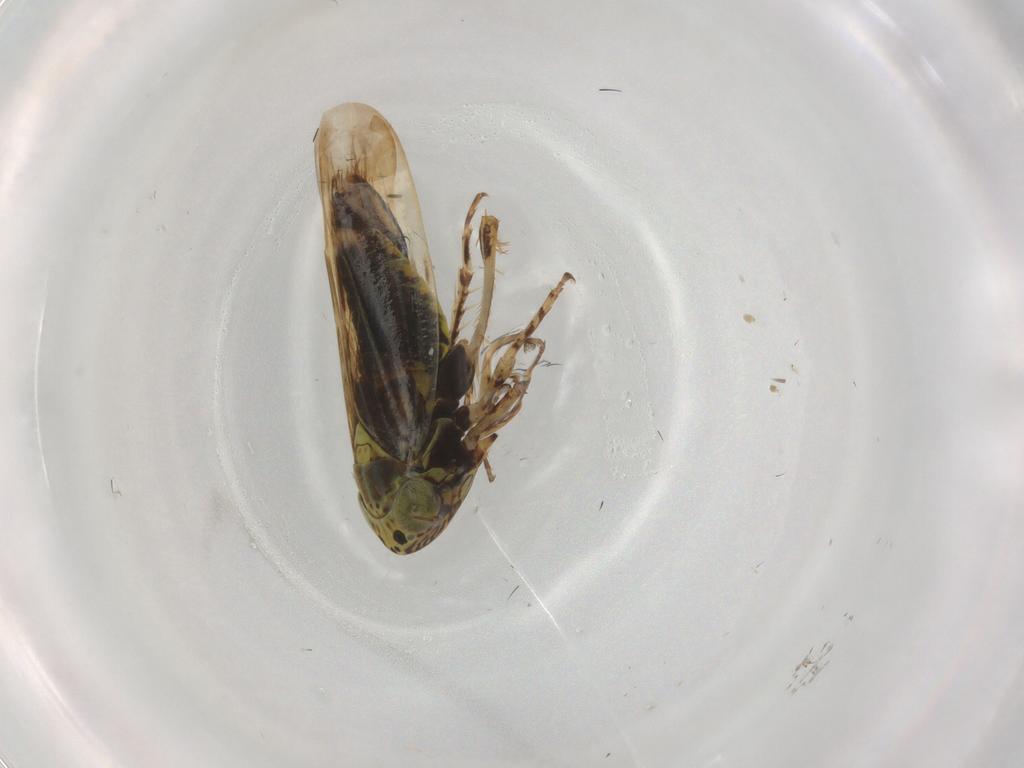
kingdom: Animalia
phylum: Arthropoda
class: Insecta
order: Hemiptera
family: Cicadellidae
